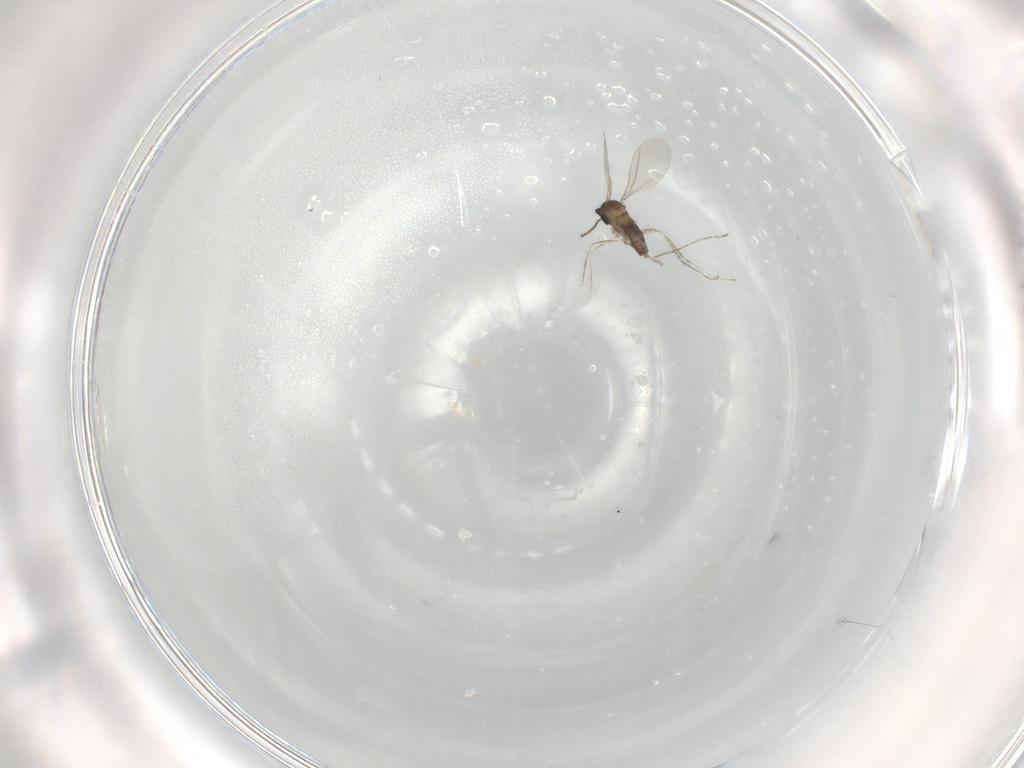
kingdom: Animalia
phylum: Arthropoda
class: Insecta
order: Diptera
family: Cecidomyiidae
